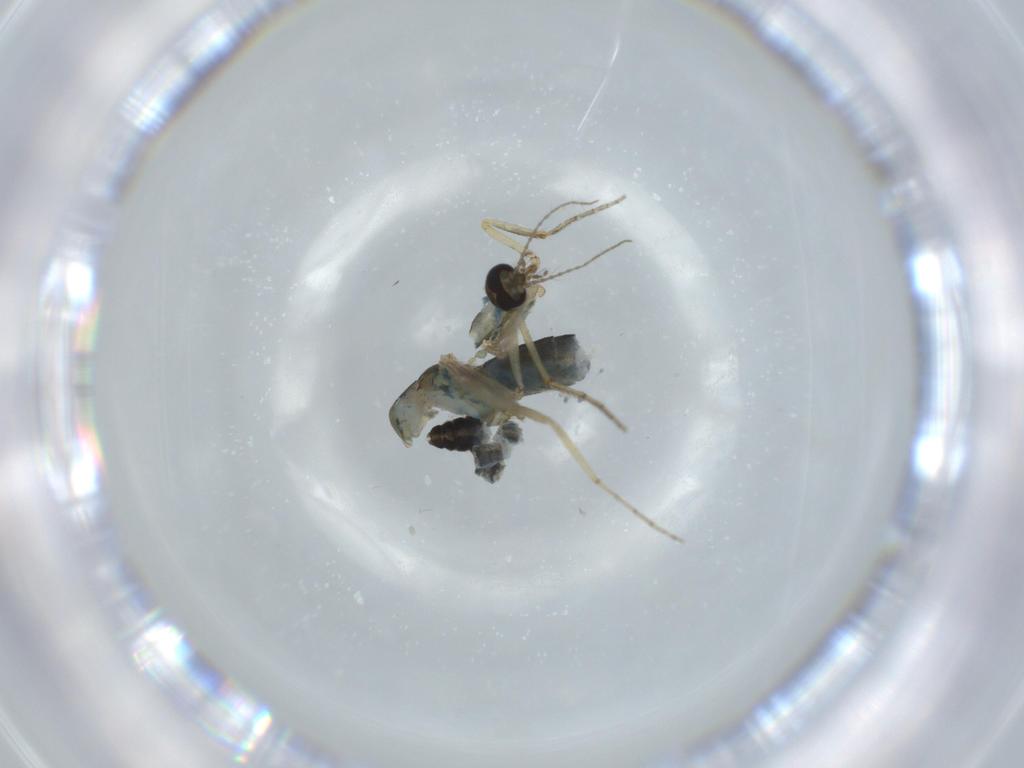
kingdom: Animalia
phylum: Arthropoda
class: Insecta
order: Diptera
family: Ceratopogonidae
